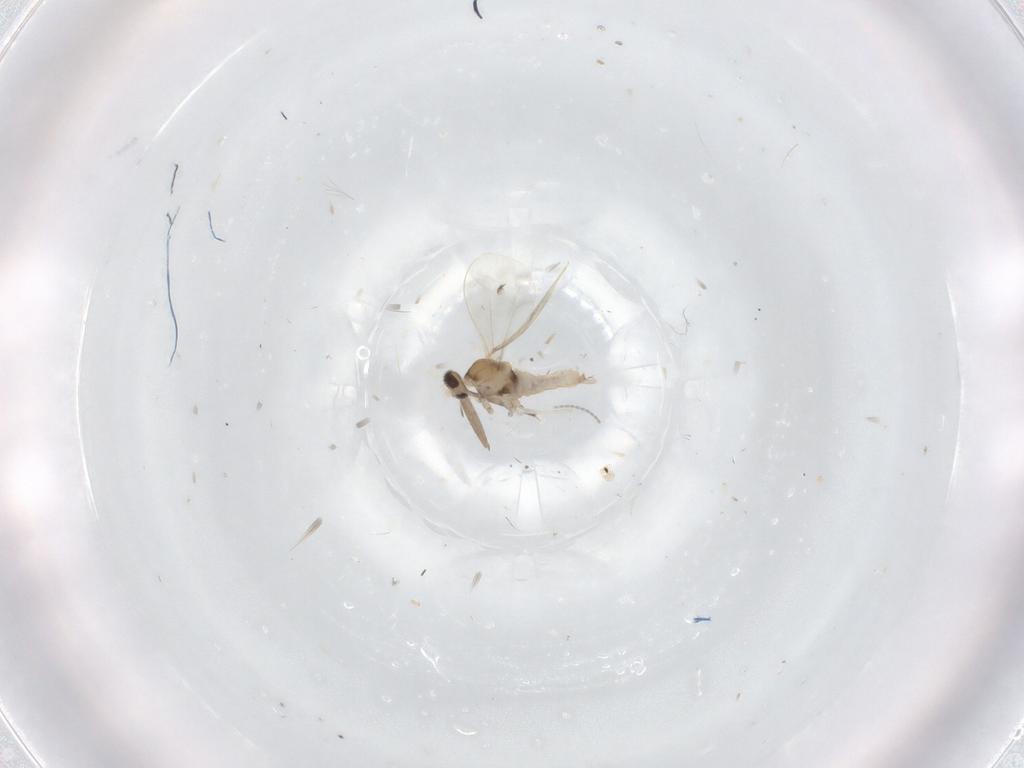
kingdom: Animalia
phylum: Arthropoda
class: Insecta
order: Diptera
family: Cecidomyiidae
